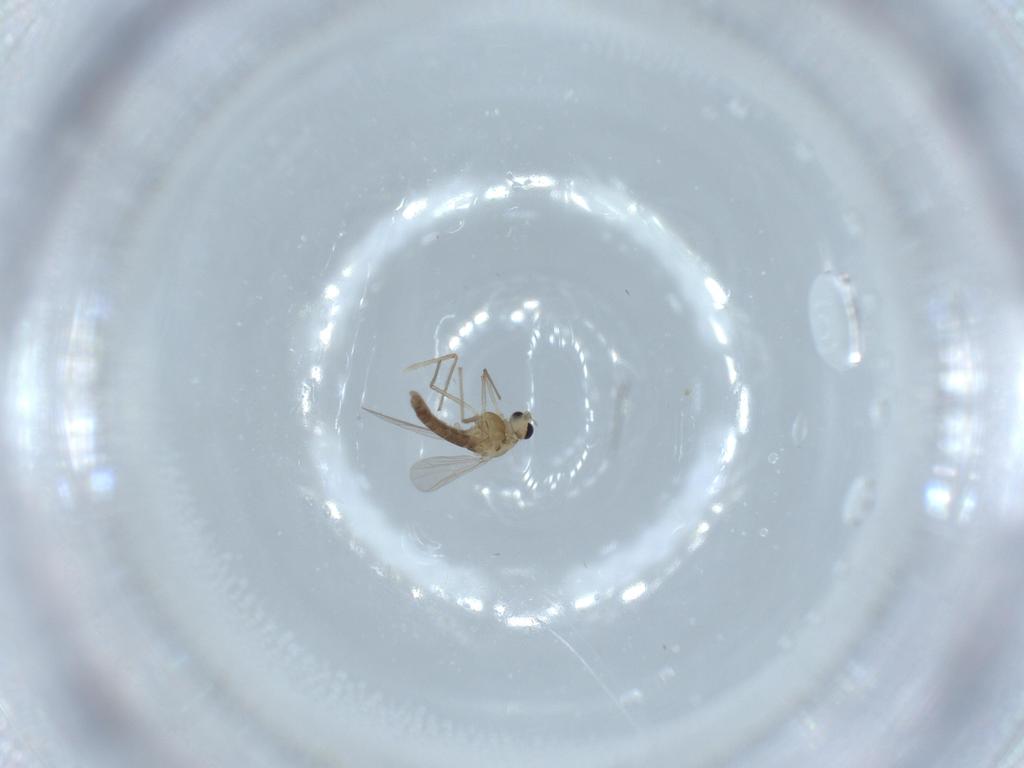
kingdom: Animalia
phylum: Arthropoda
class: Insecta
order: Diptera
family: Chironomidae
